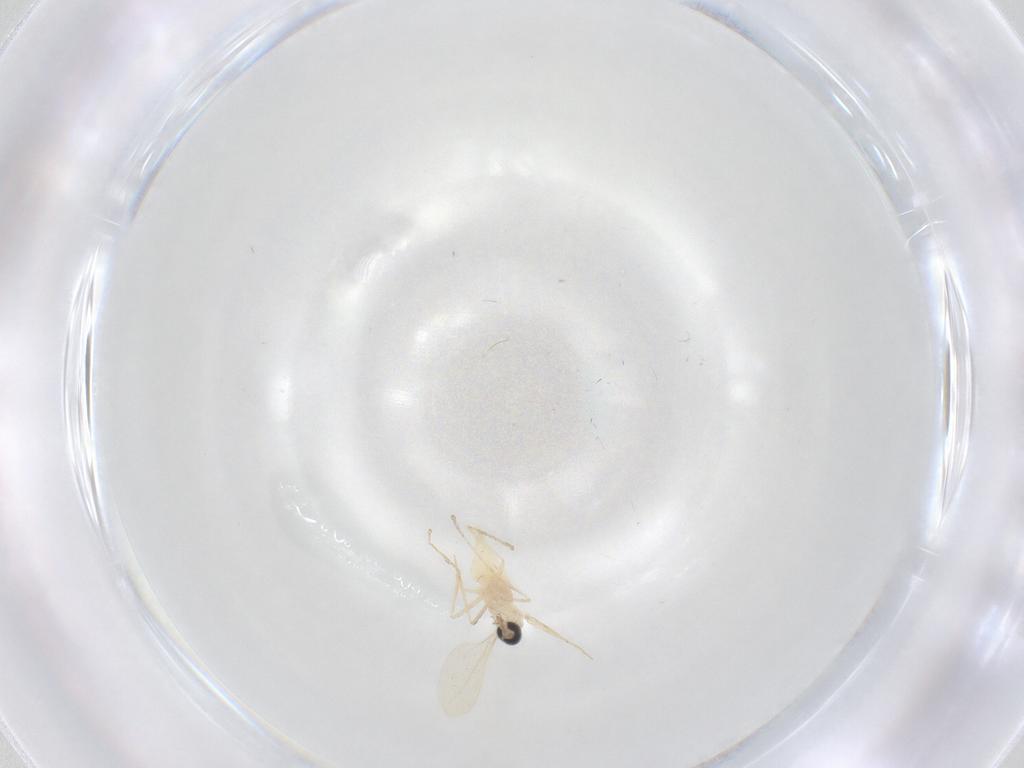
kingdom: Animalia
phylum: Arthropoda
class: Insecta
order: Diptera
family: Cecidomyiidae
